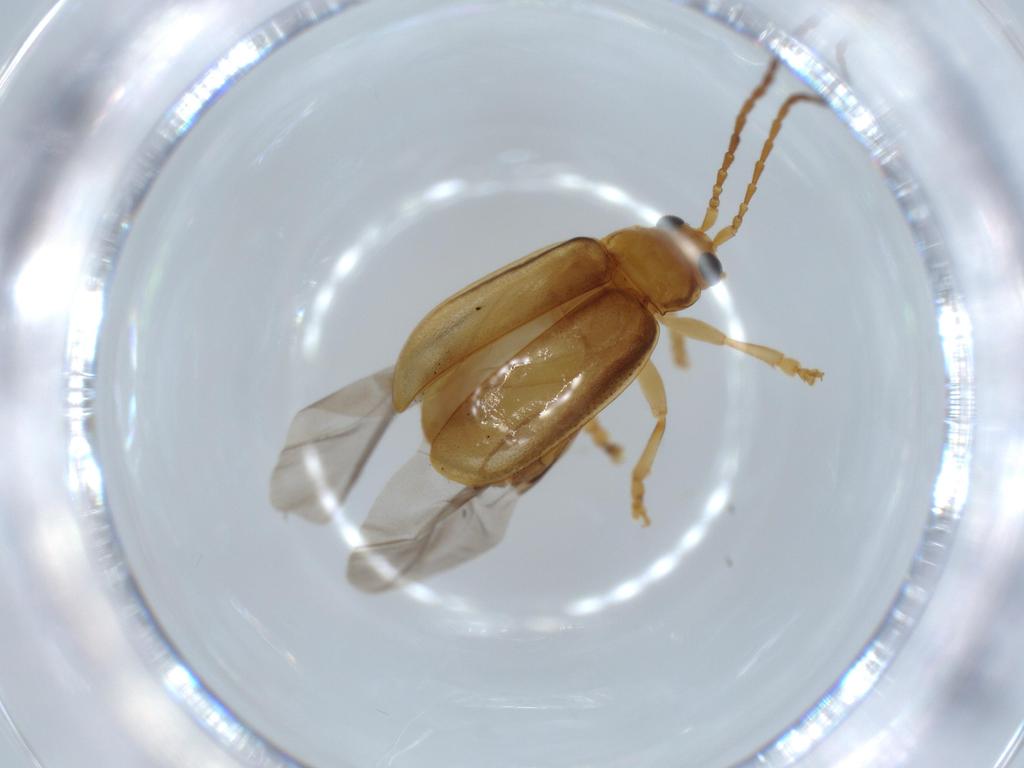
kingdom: Animalia
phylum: Arthropoda
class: Insecta
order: Coleoptera
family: Chrysomelidae
